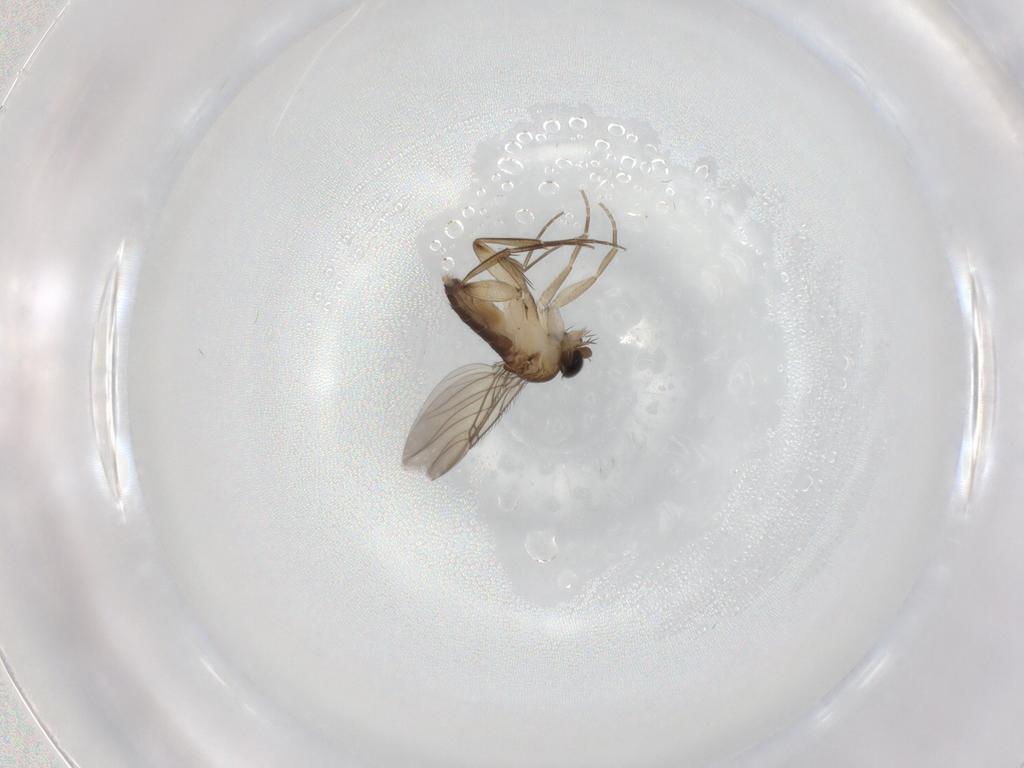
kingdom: Animalia
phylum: Arthropoda
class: Insecta
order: Diptera
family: Phoridae
